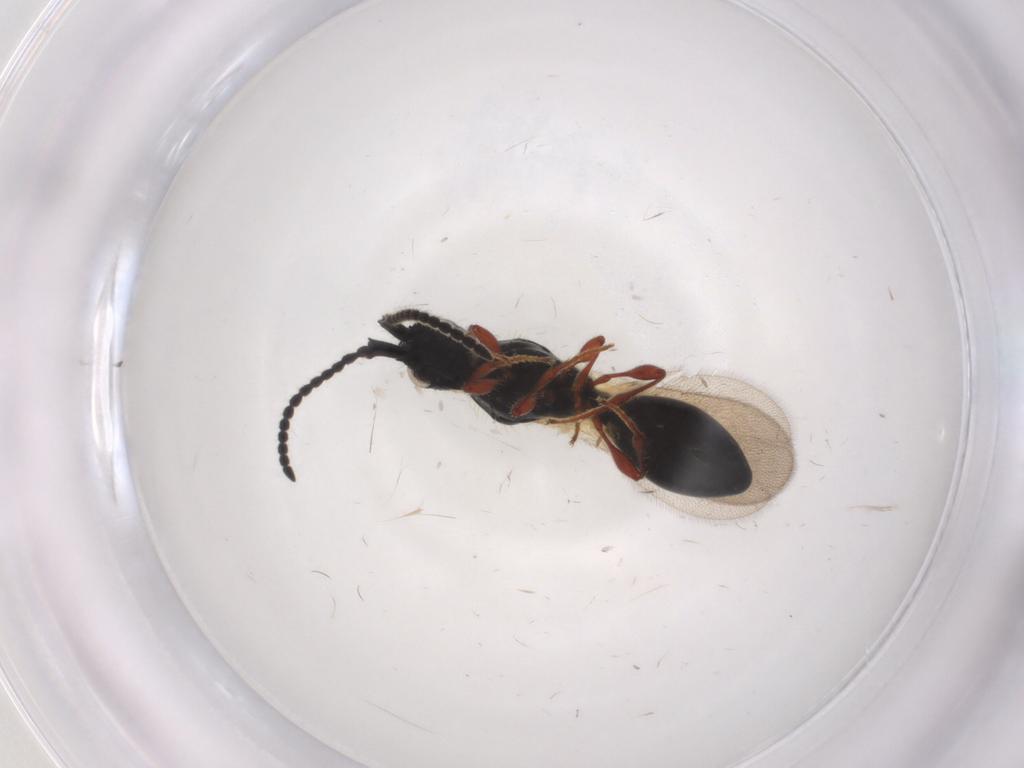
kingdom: Animalia
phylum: Arthropoda
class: Insecta
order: Hymenoptera
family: Diapriidae
